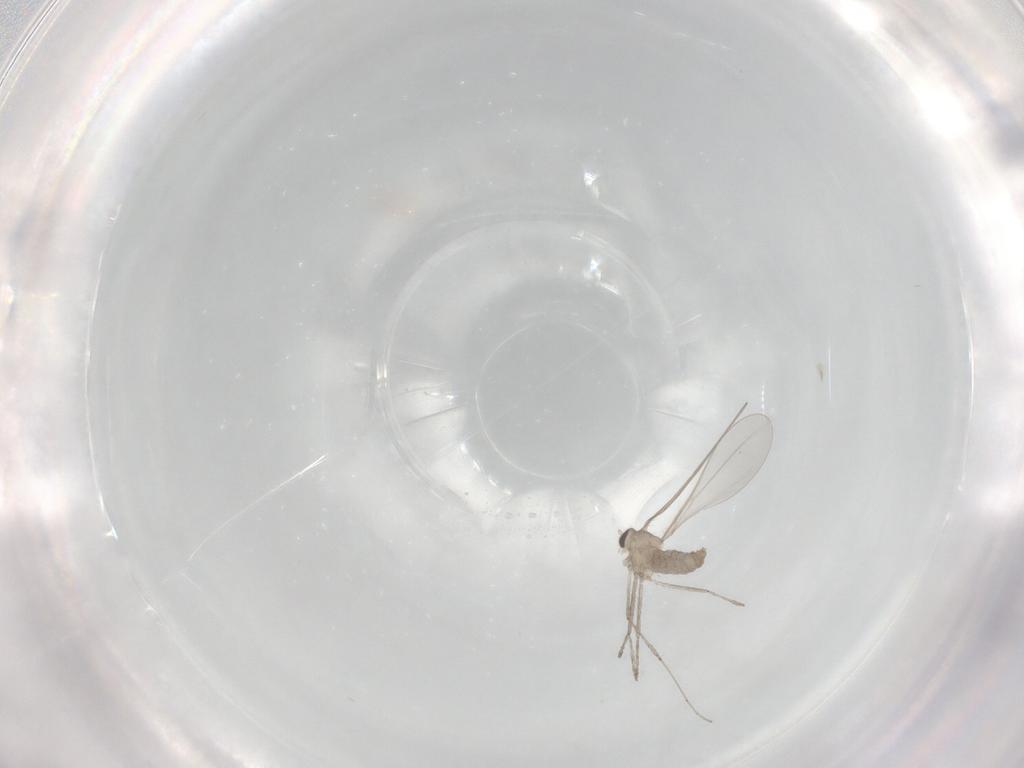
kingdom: Animalia
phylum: Arthropoda
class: Insecta
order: Diptera
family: Cecidomyiidae
